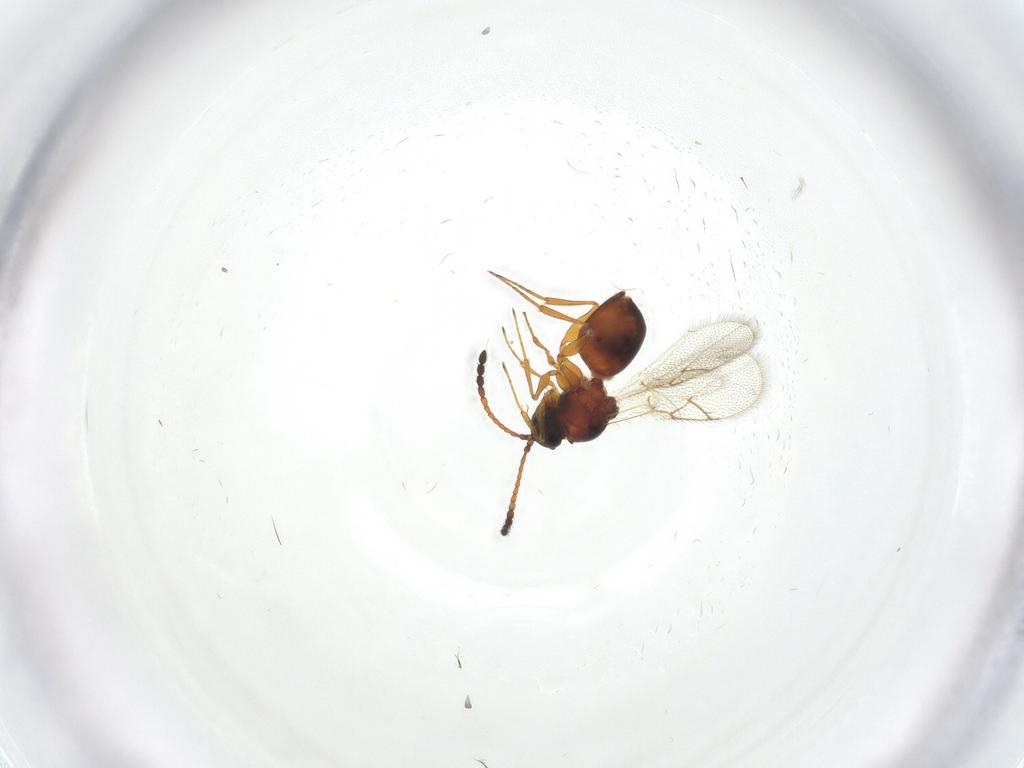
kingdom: Animalia
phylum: Arthropoda
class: Insecta
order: Hymenoptera
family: Figitidae
